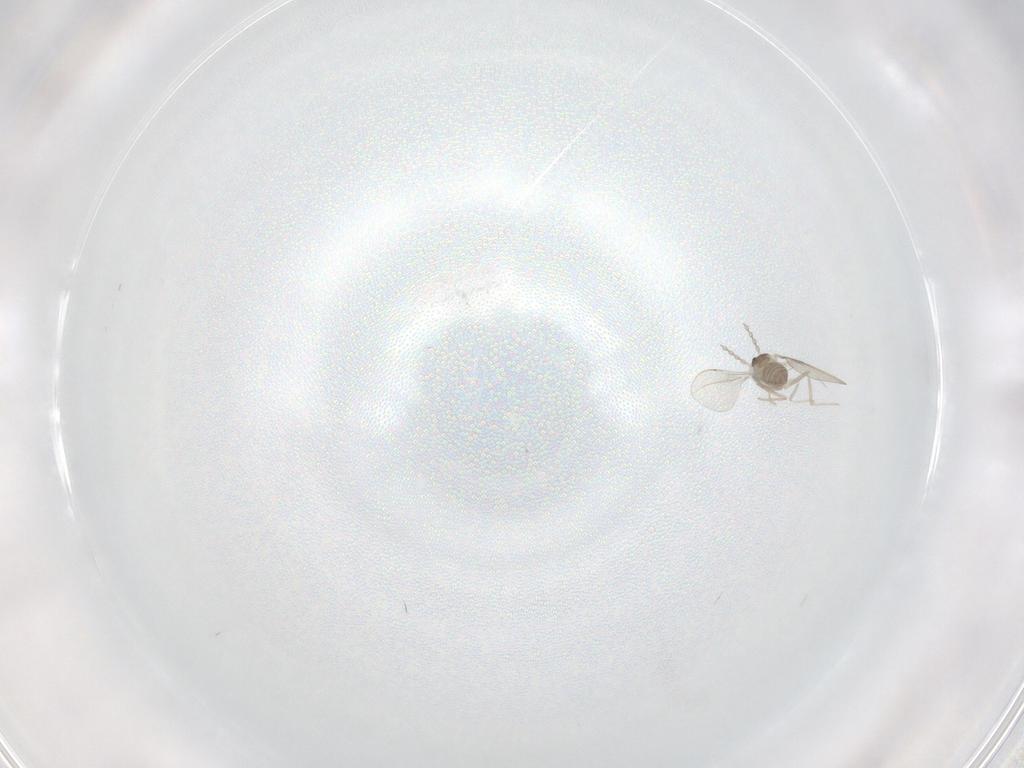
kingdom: Animalia
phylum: Arthropoda
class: Insecta
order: Diptera
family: Cecidomyiidae
